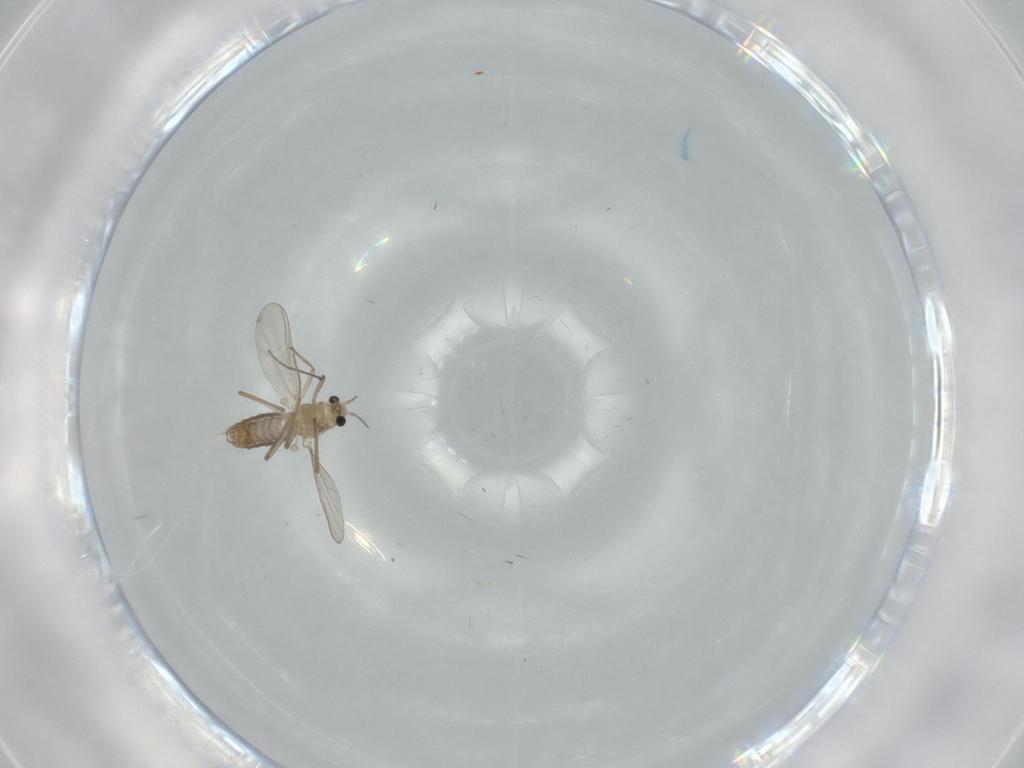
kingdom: Animalia
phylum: Arthropoda
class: Insecta
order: Diptera
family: Chironomidae
